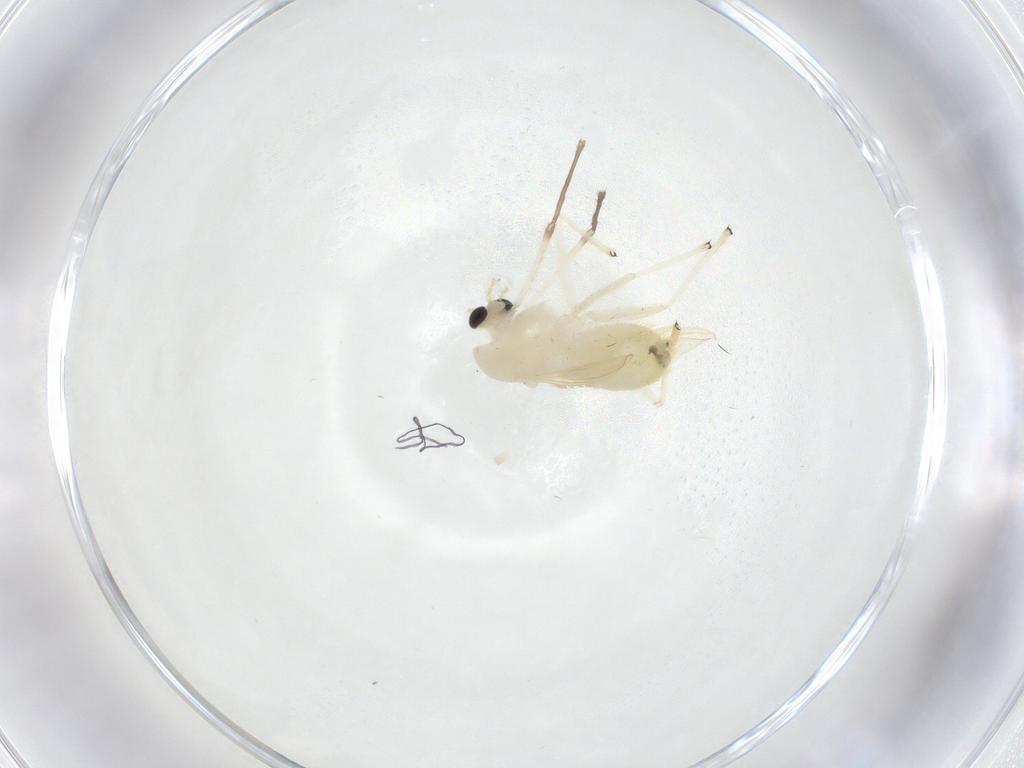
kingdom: Animalia
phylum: Arthropoda
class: Insecta
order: Diptera
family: Chironomidae
